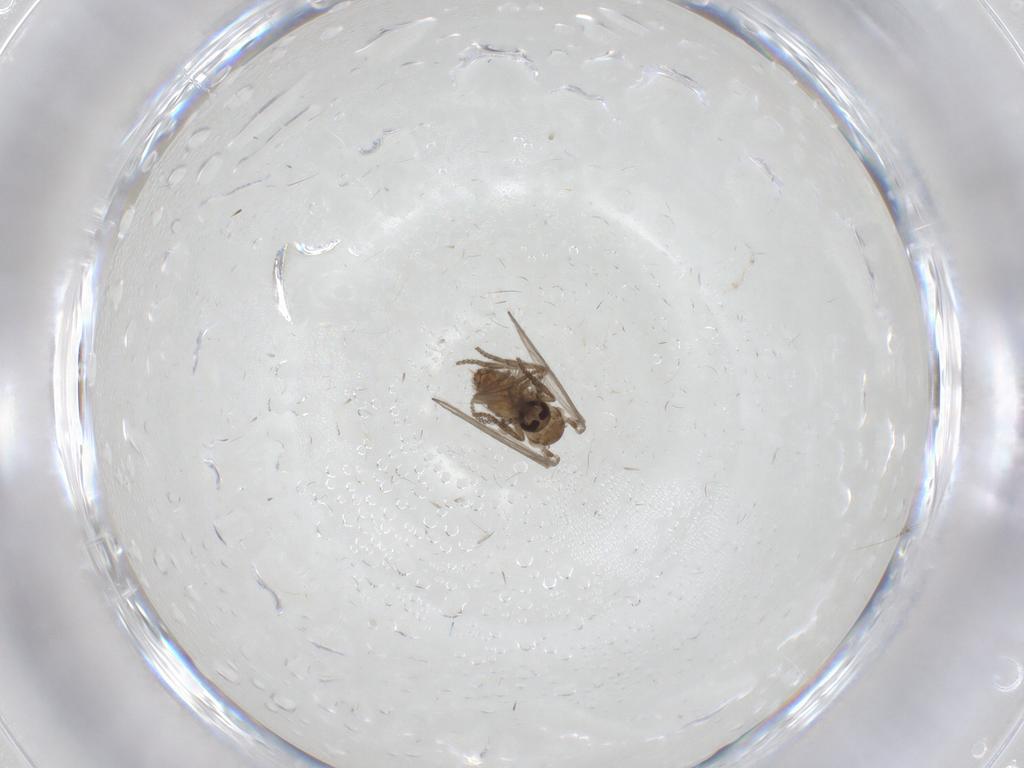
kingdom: Animalia
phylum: Arthropoda
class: Insecta
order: Diptera
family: Psychodidae
